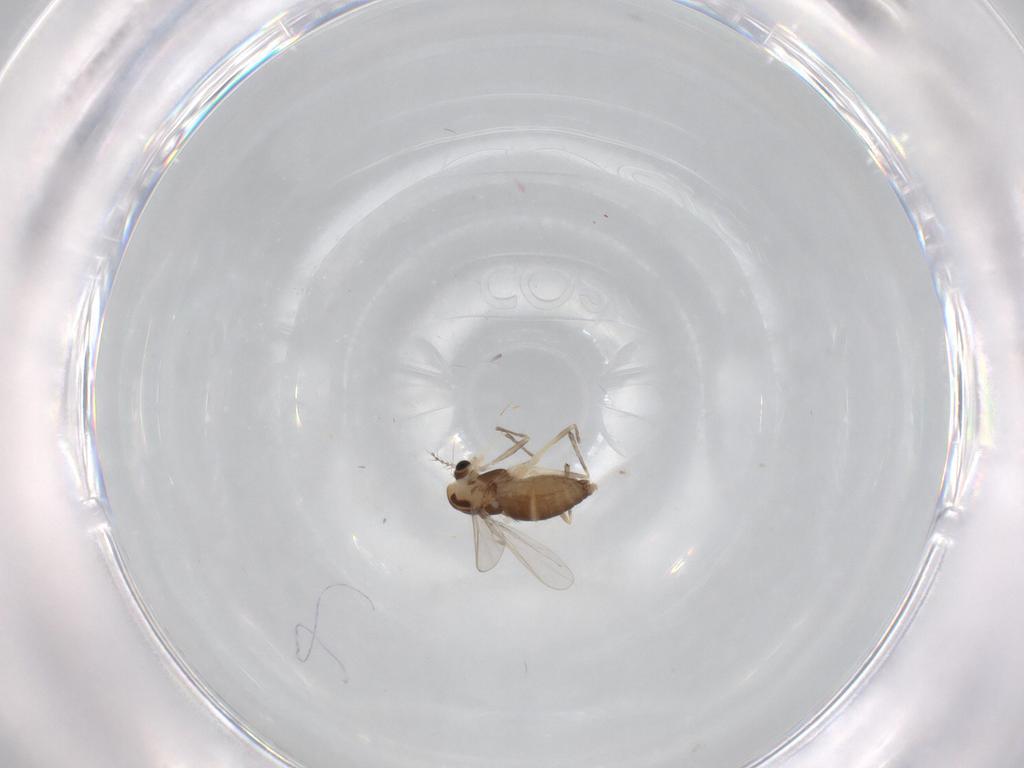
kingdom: Animalia
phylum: Arthropoda
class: Insecta
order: Diptera
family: Chironomidae
